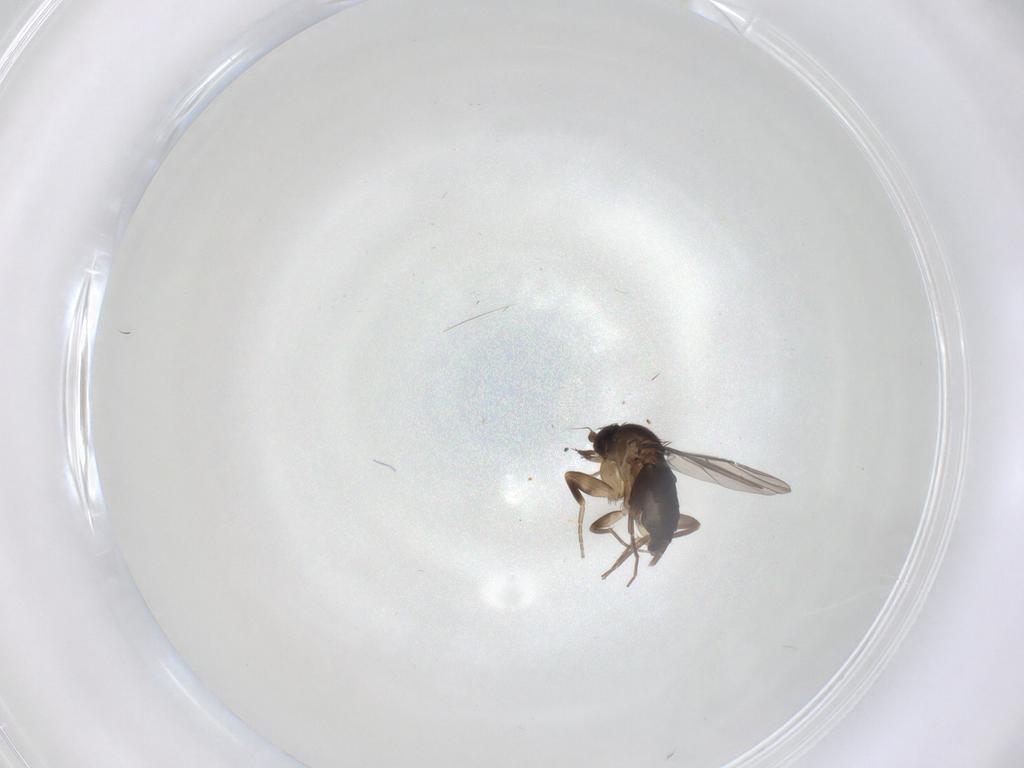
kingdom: Animalia
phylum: Arthropoda
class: Insecta
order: Diptera
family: Phoridae
